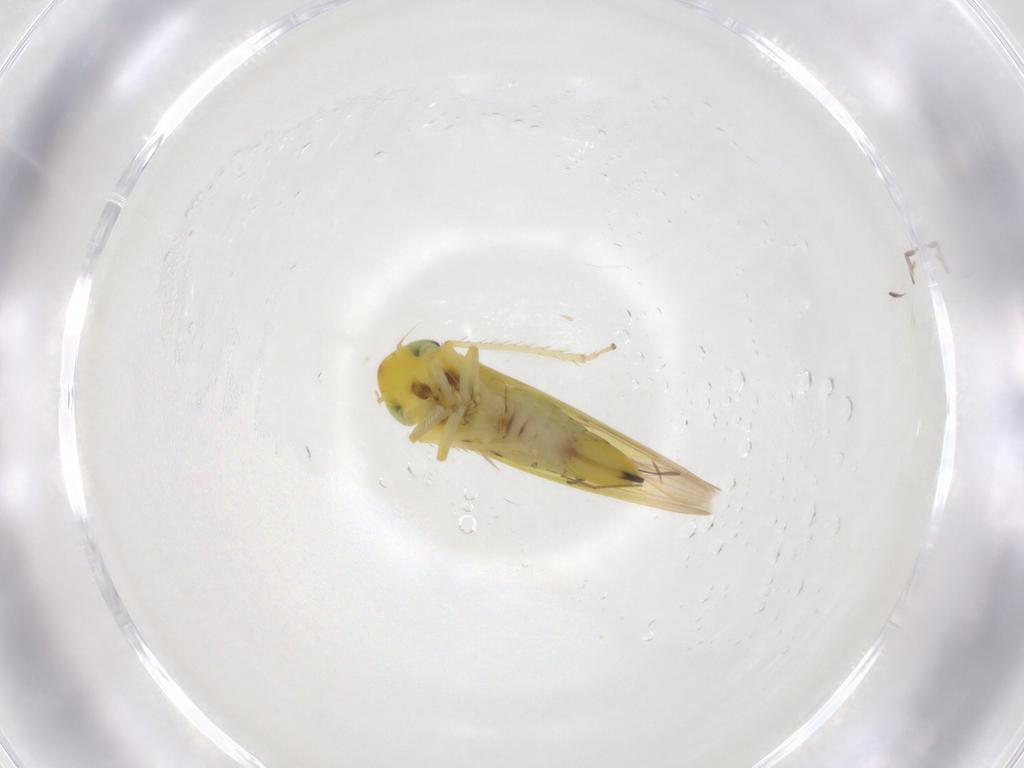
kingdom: Animalia
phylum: Arthropoda
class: Insecta
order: Hemiptera
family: Cicadellidae
